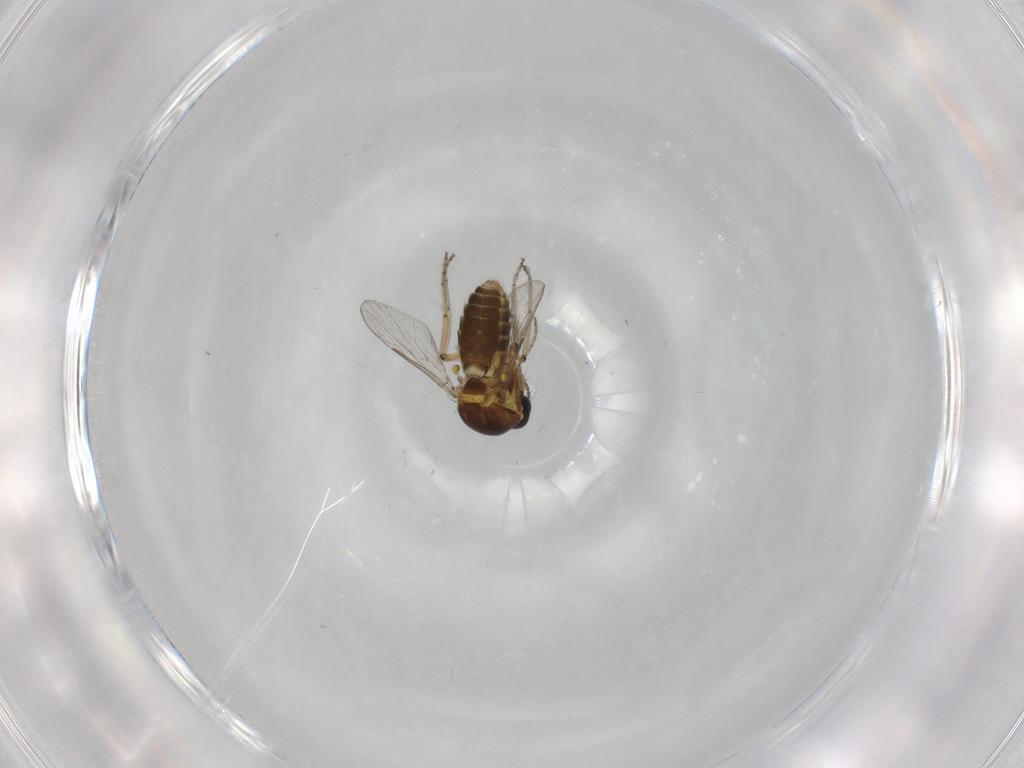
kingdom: Animalia
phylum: Arthropoda
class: Insecta
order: Diptera
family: Ceratopogonidae
